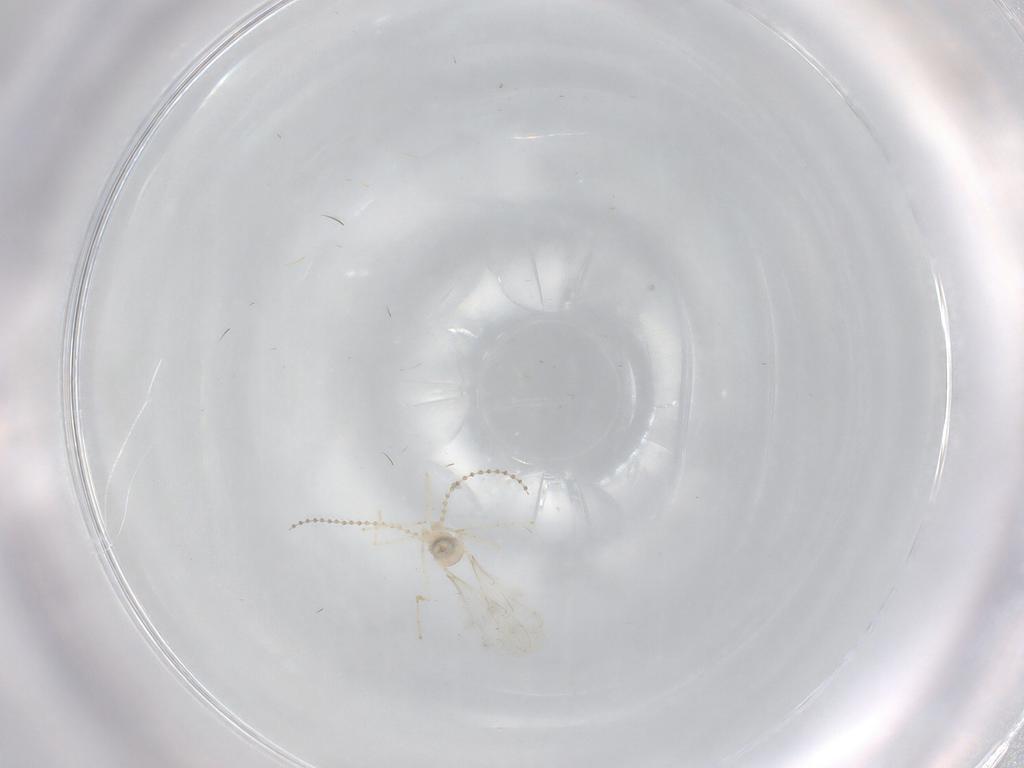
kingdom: Animalia
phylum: Arthropoda
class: Insecta
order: Diptera
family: Cecidomyiidae
